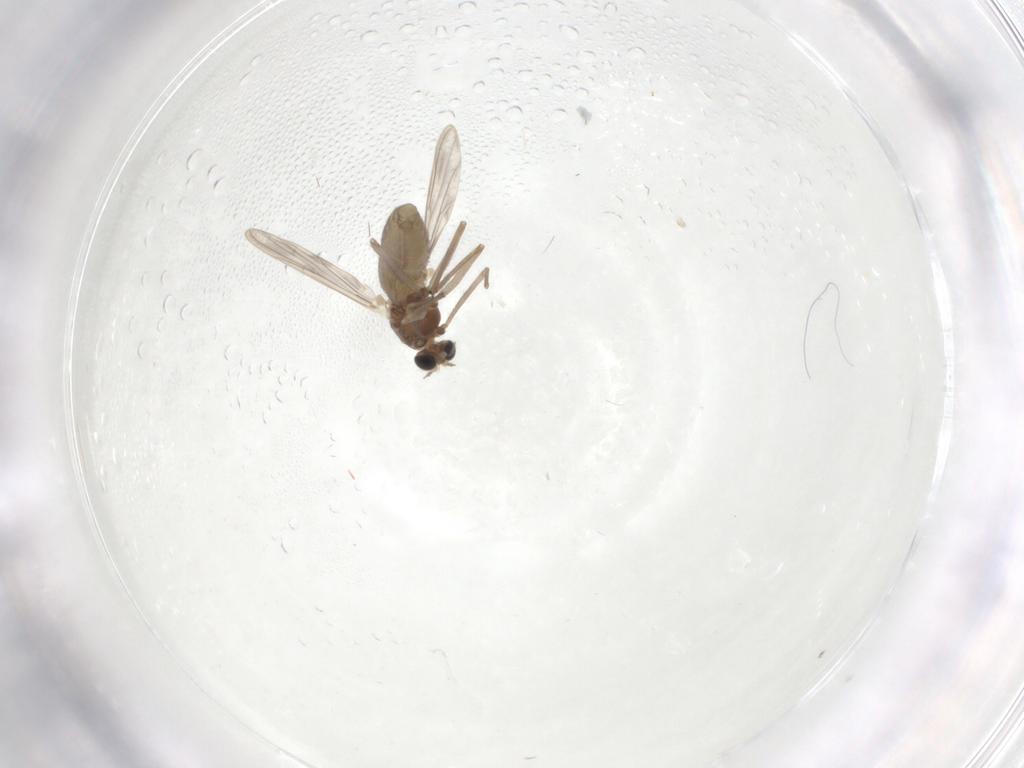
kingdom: Animalia
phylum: Arthropoda
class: Insecta
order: Diptera
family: Chironomidae
